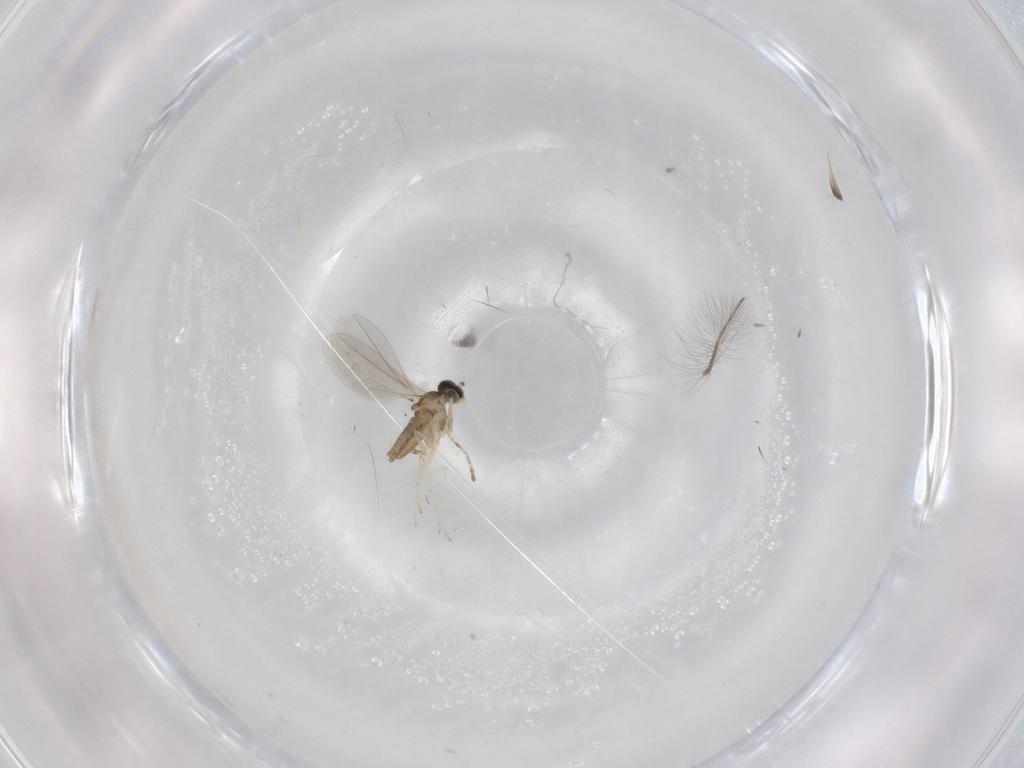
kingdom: Animalia
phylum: Arthropoda
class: Insecta
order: Diptera
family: Cecidomyiidae
